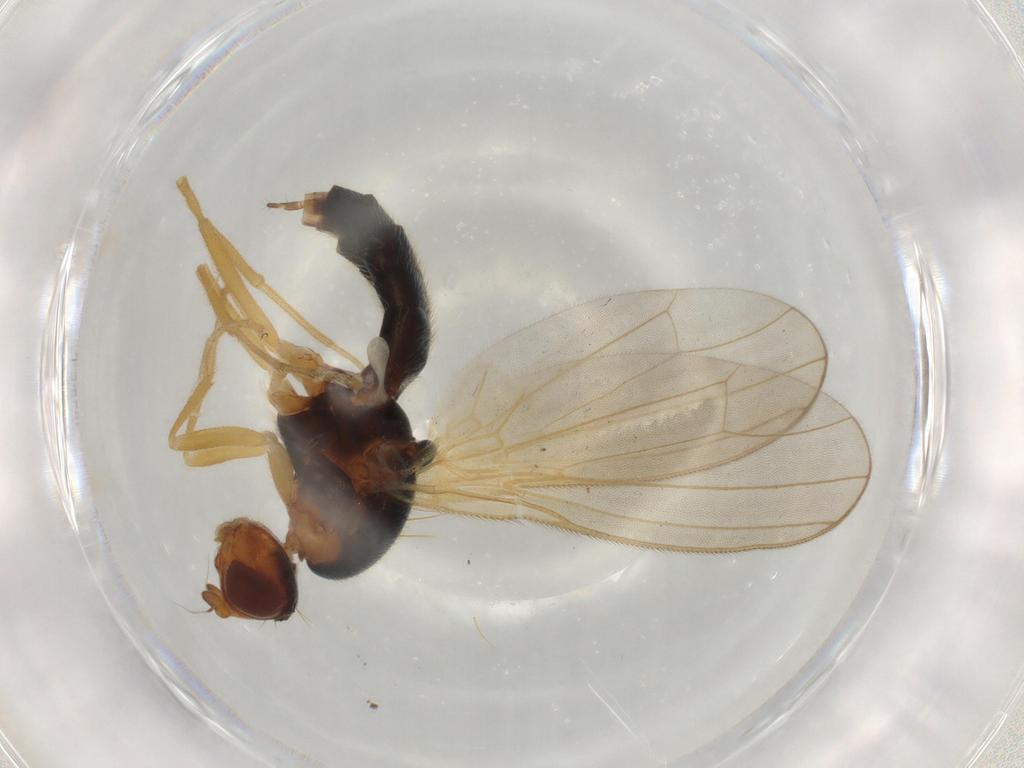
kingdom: Animalia
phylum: Arthropoda
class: Insecta
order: Diptera
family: Psilidae
